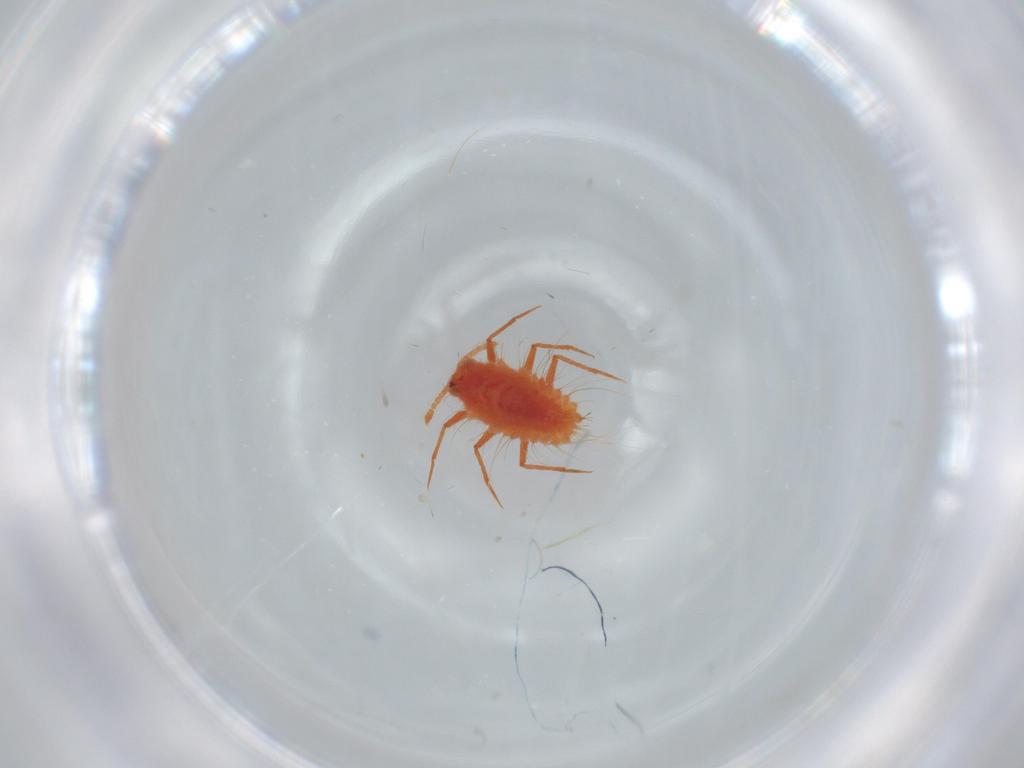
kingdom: Animalia
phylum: Arthropoda
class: Insecta
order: Hemiptera
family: Monophlebidae
